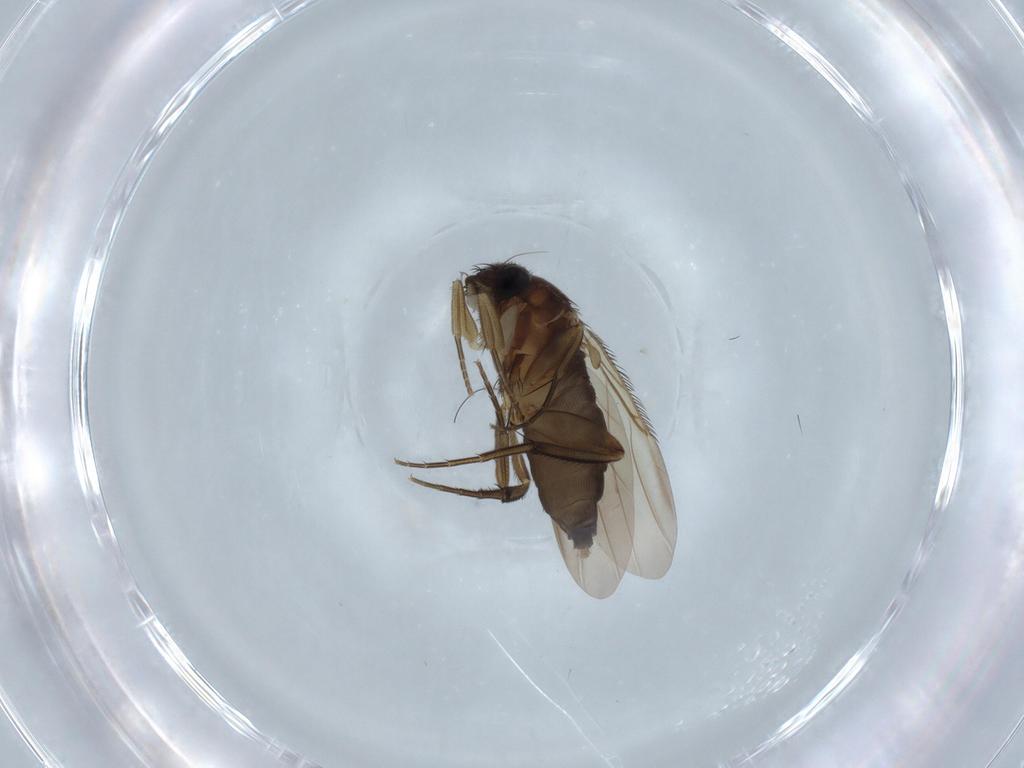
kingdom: Animalia
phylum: Arthropoda
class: Insecta
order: Diptera
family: Phoridae
